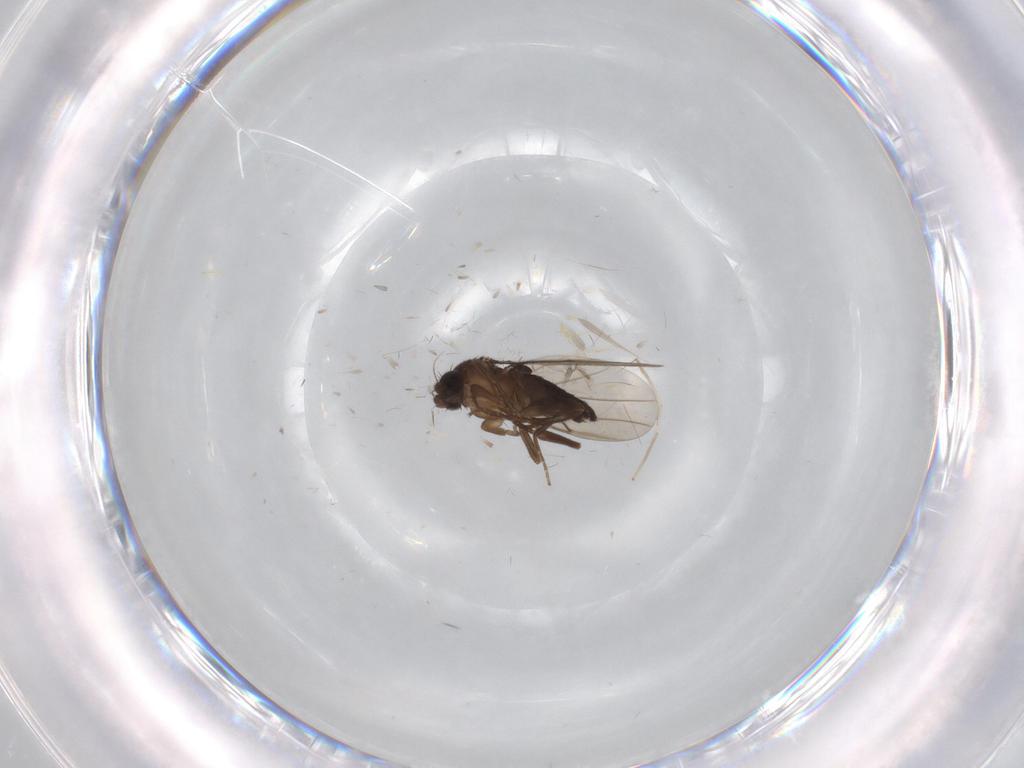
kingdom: Animalia
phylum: Arthropoda
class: Insecta
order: Diptera
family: Chironomidae
